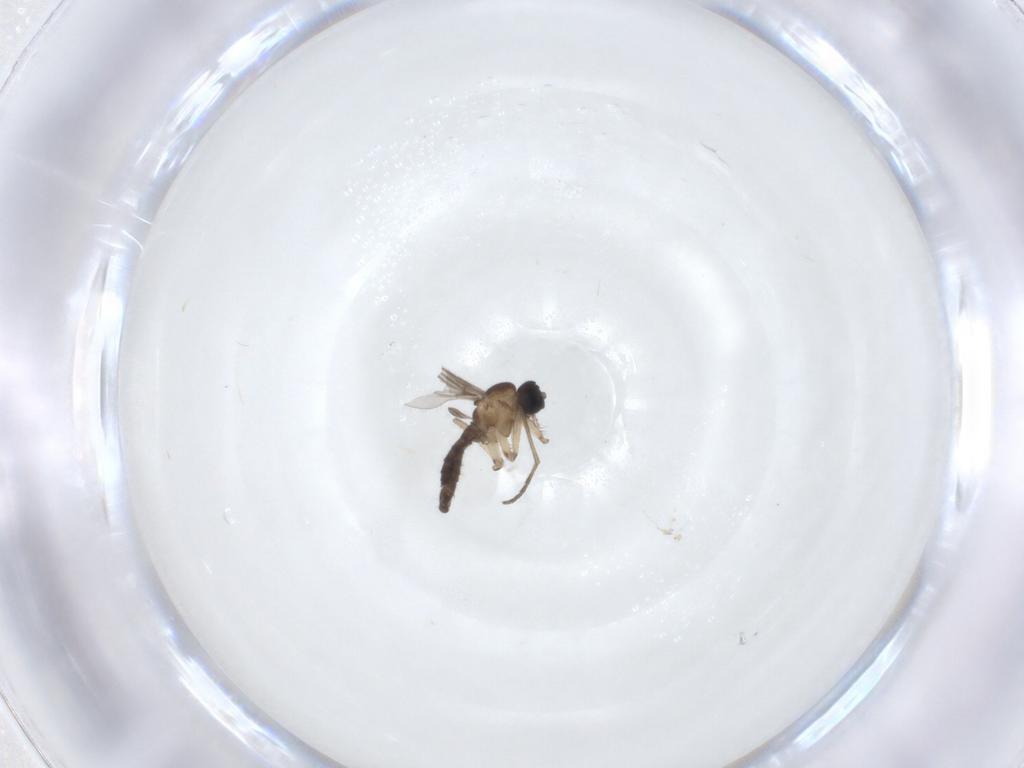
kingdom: Animalia
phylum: Arthropoda
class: Insecta
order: Diptera
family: Sciaridae
